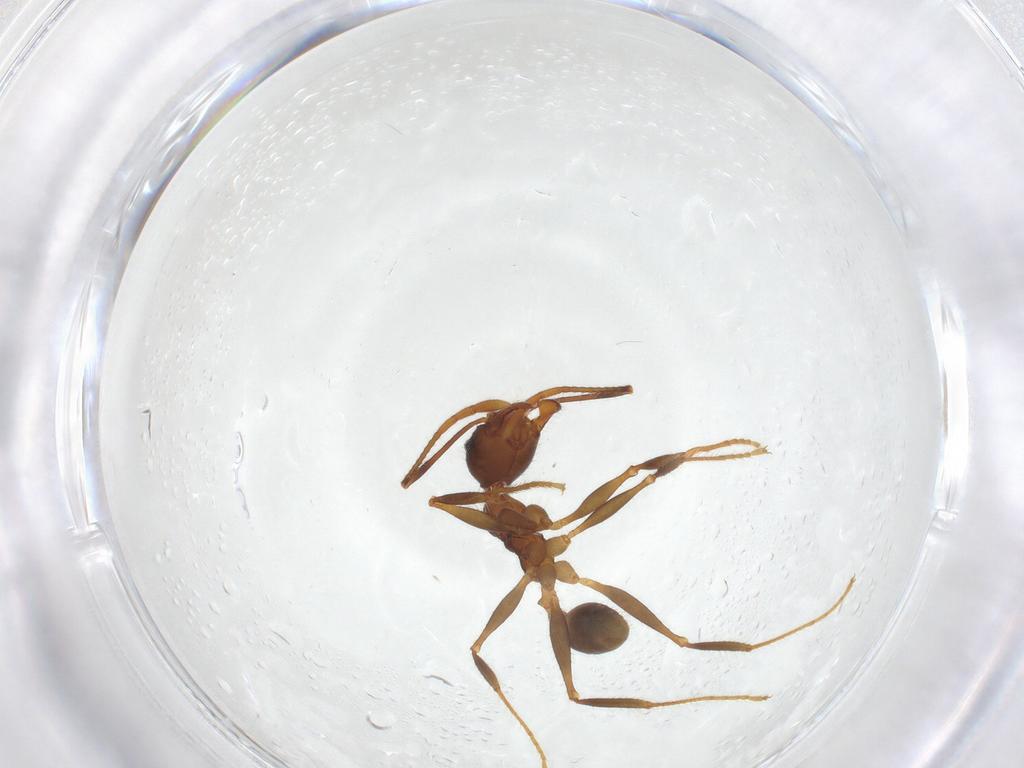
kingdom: Animalia
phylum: Arthropoda
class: Insecta
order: Hymenoptera
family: Formicidae
